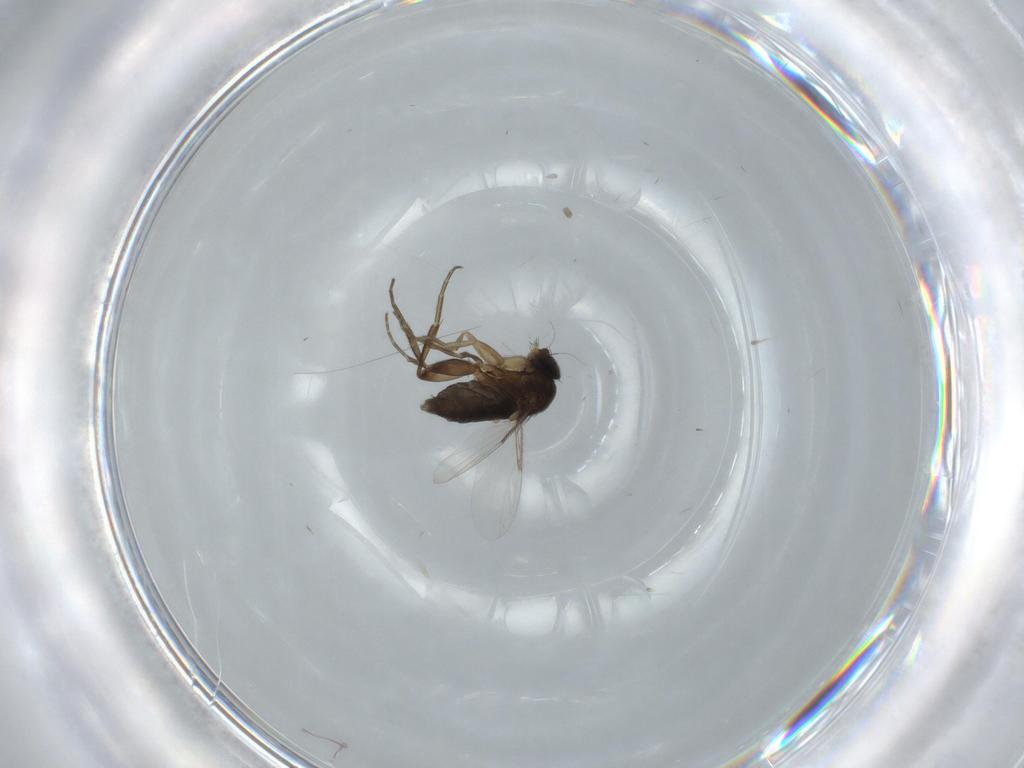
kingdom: Animalia
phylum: Arthropoda
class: Insecta
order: Diptera
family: Phoridae
